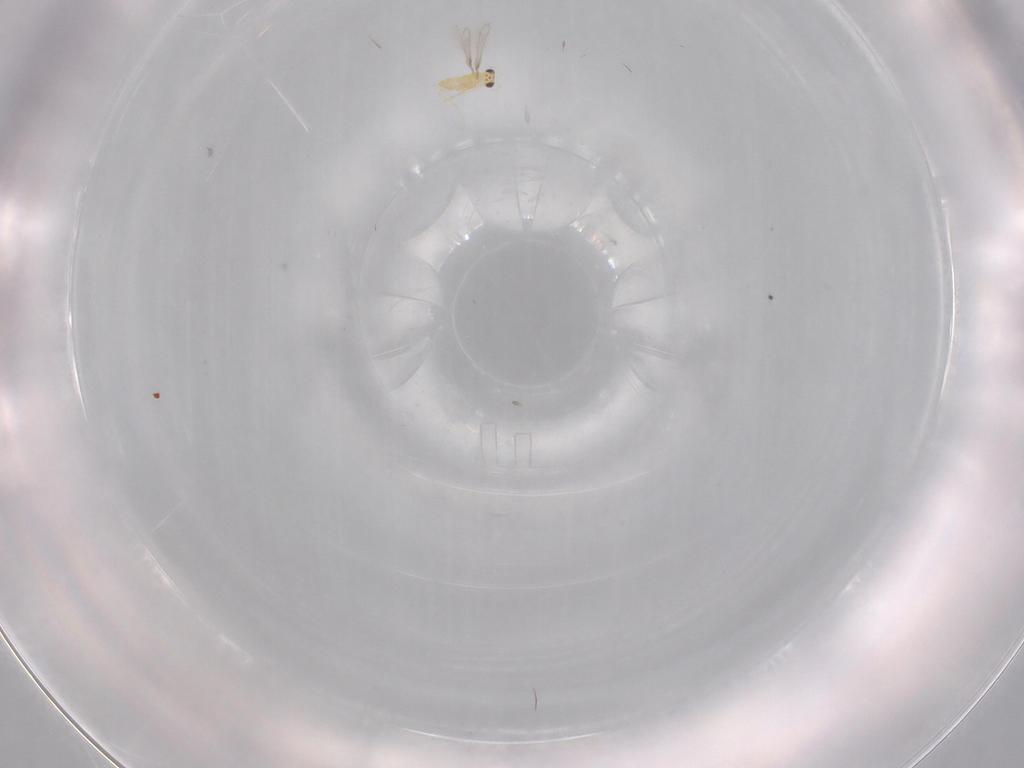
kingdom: Animalia
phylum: Arthropoda
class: Insecta
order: Hymenoptera
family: Mymaridae
